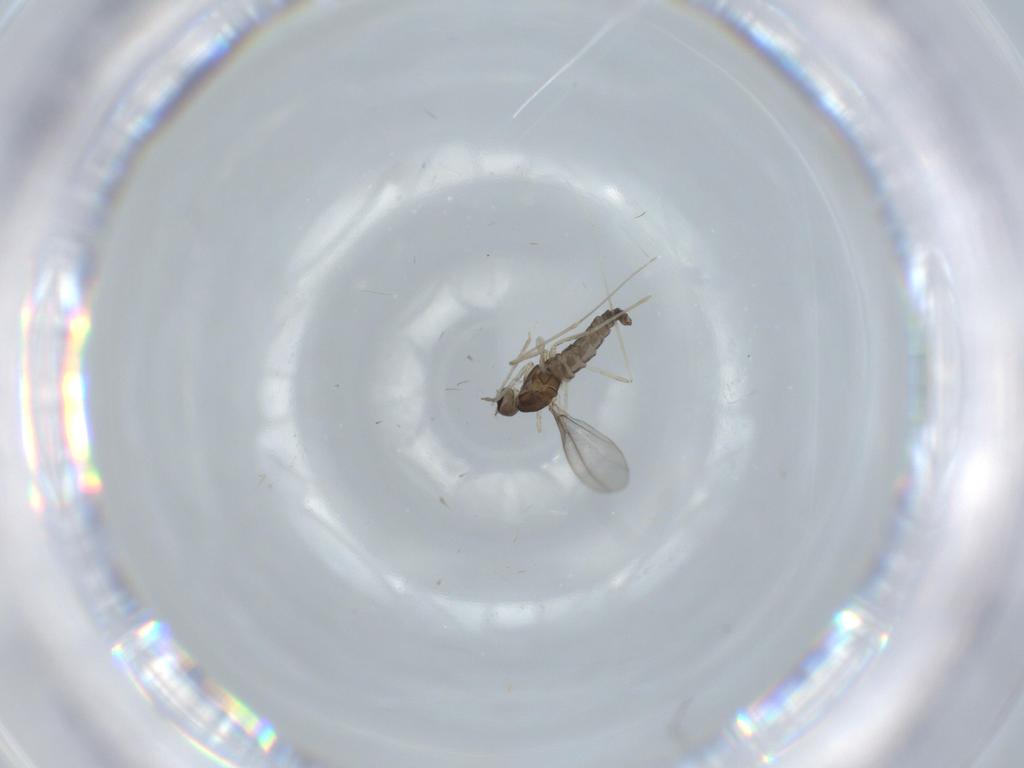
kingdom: Animalia
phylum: Arthropoda
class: Insecta
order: Diptera
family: Cecidomyiidae
